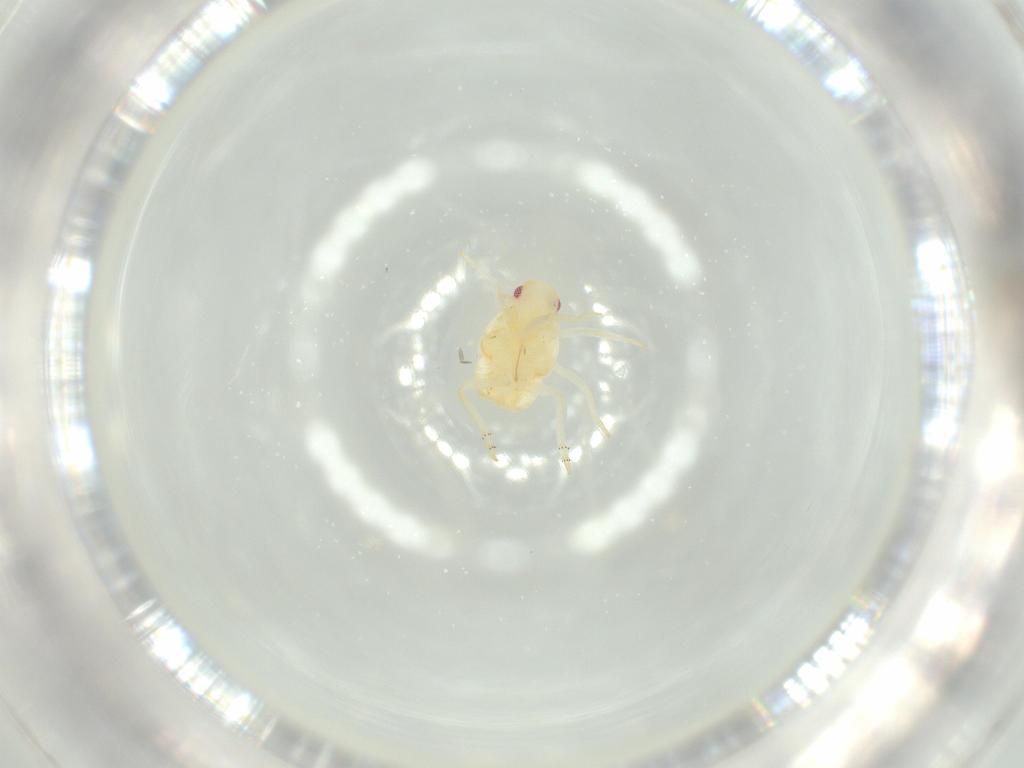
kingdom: Animalia
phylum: Arthropoda
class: Insecta
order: Hemiptera
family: Flatidae
